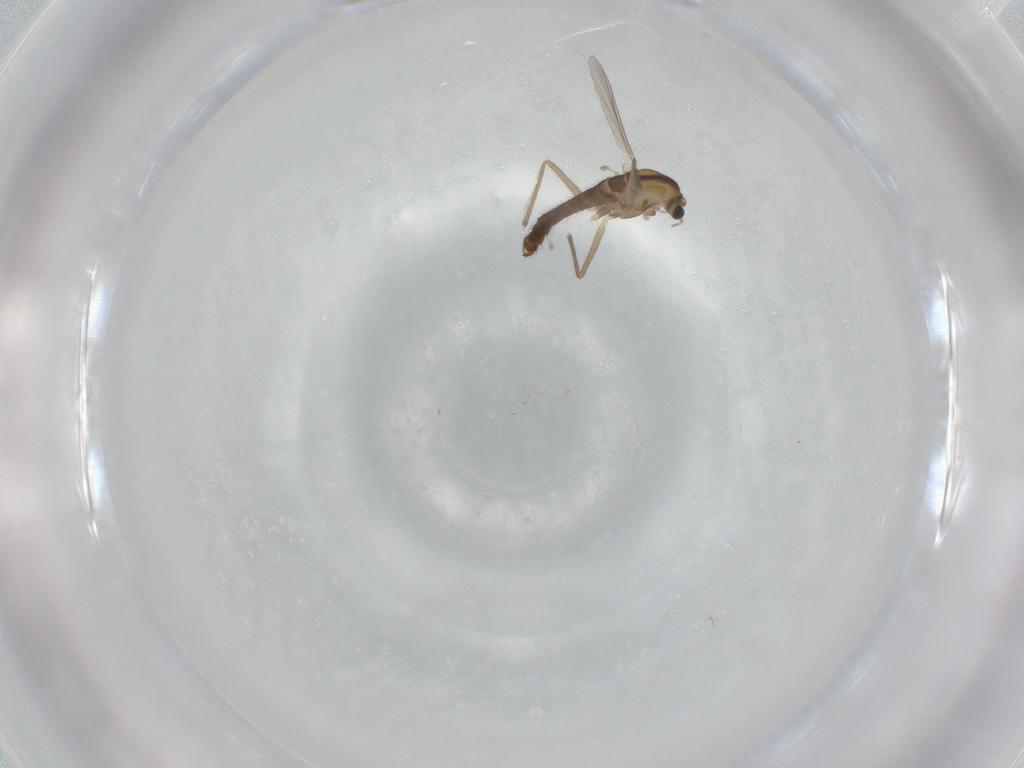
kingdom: Animalia
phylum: Arthropoda
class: Insecta
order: Diptera
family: Chironomidae
